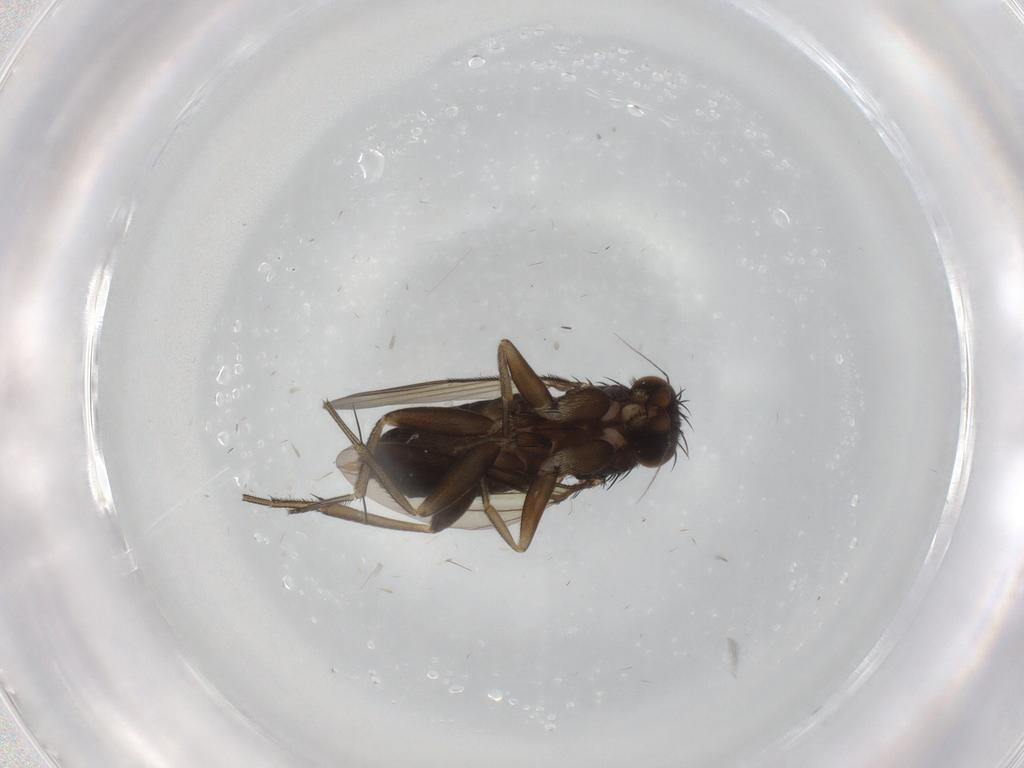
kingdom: Animalia
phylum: Arthropoda
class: Insecta
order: Diptera
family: Phoridae
